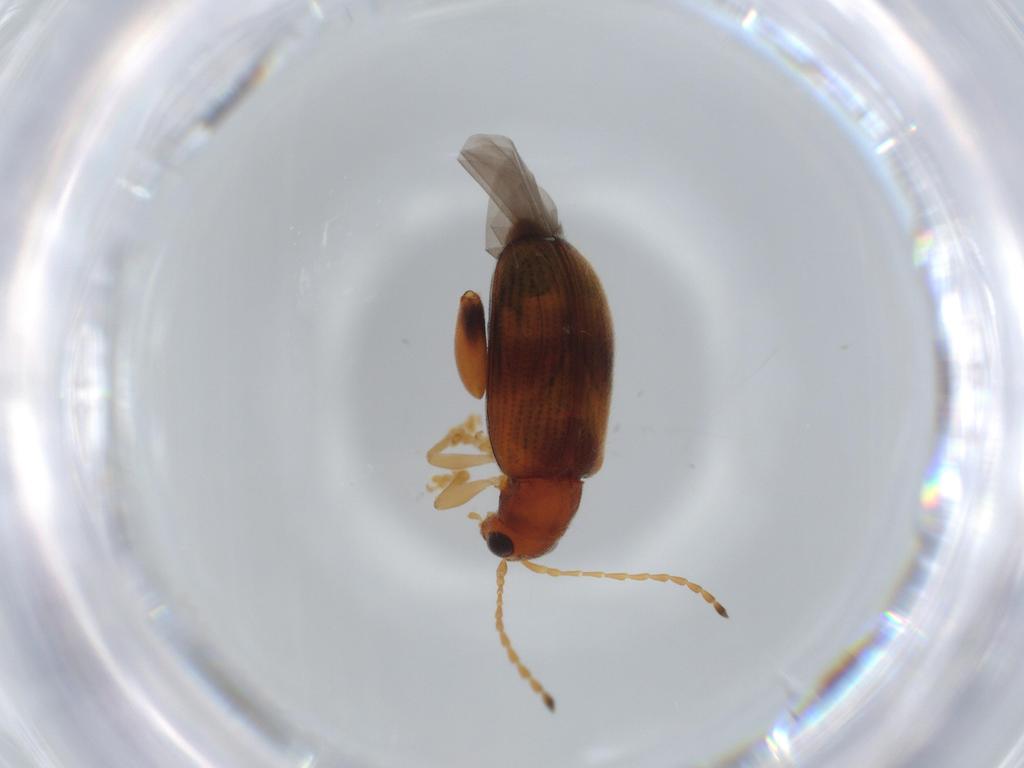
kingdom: Animalia
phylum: Arthropoda
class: Insecta
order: Coleoptera
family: Chrysomelidae
